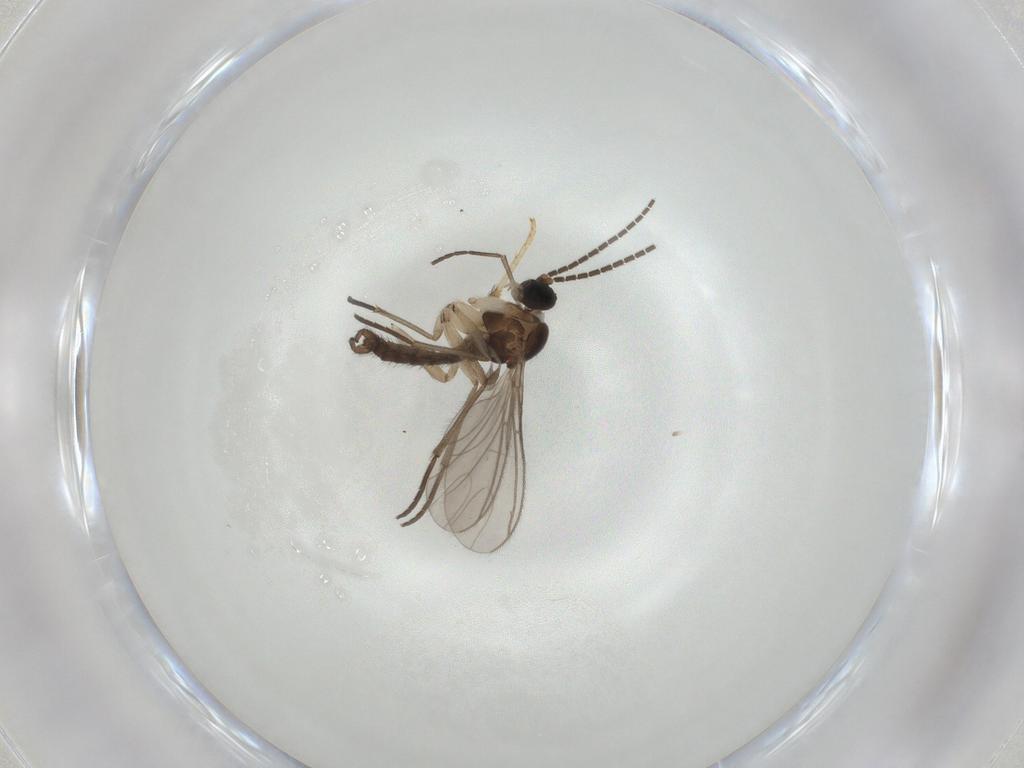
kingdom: Animalia
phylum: Arthropoda
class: Insecta
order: Diptera
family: Sciaridae
